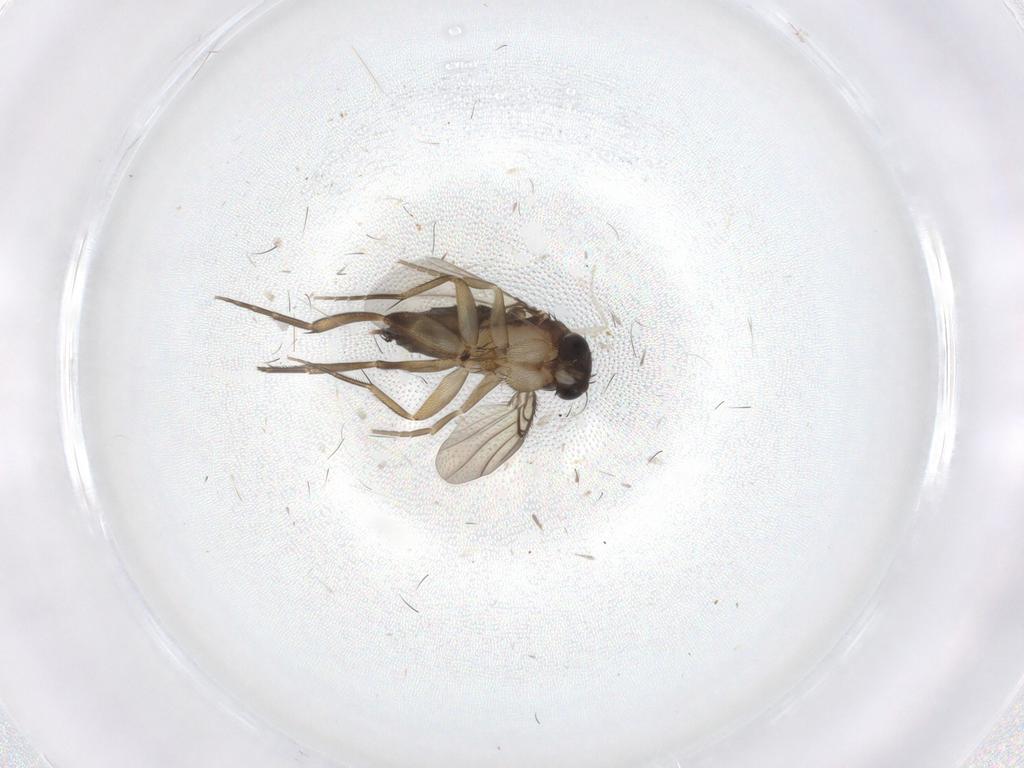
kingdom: Animalia
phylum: Arthropoda
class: Insecta
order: Diptera
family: Phoridae
